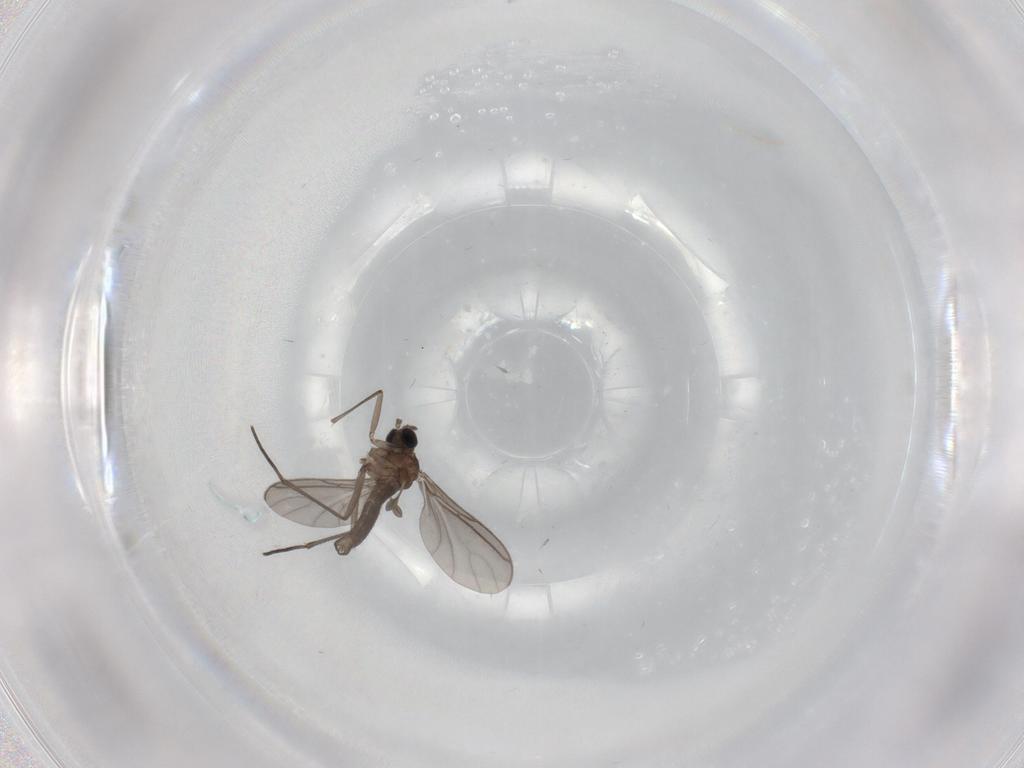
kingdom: Animalia
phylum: Arthropoda
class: Insecta
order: Diptera
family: Sciaridae
